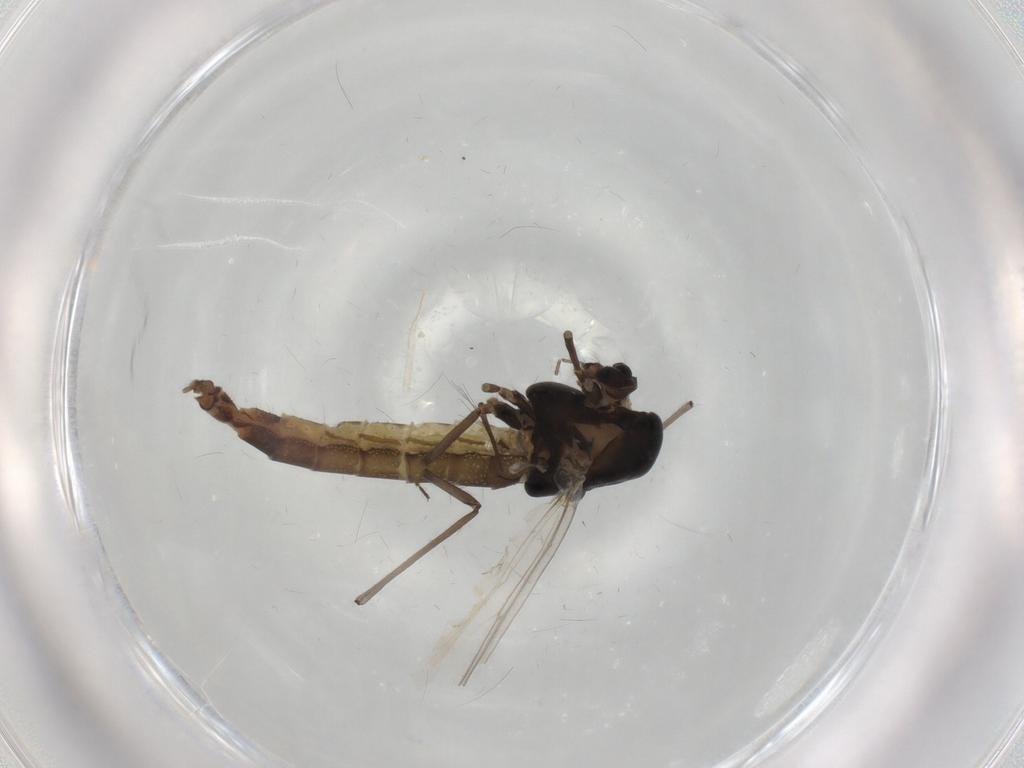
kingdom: Animalia
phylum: Arthropoda
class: Insecta
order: Diptera
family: Chironomidae
